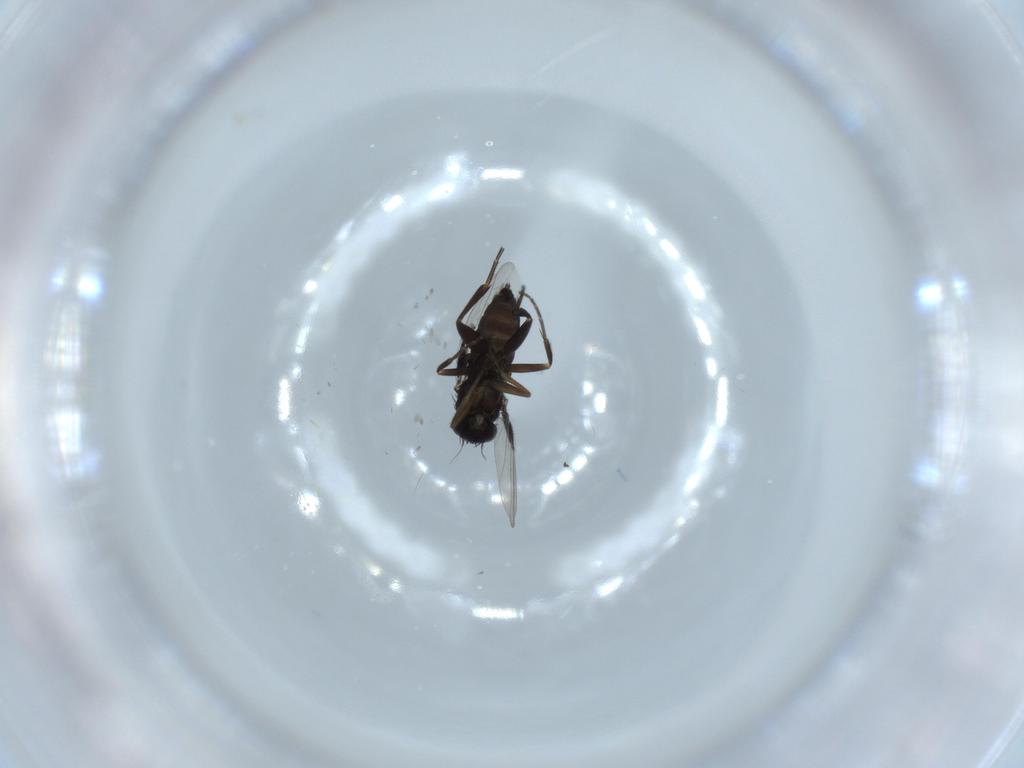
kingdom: Animalia
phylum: Arthropoda
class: Insecta
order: Diptera
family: Phoridae
